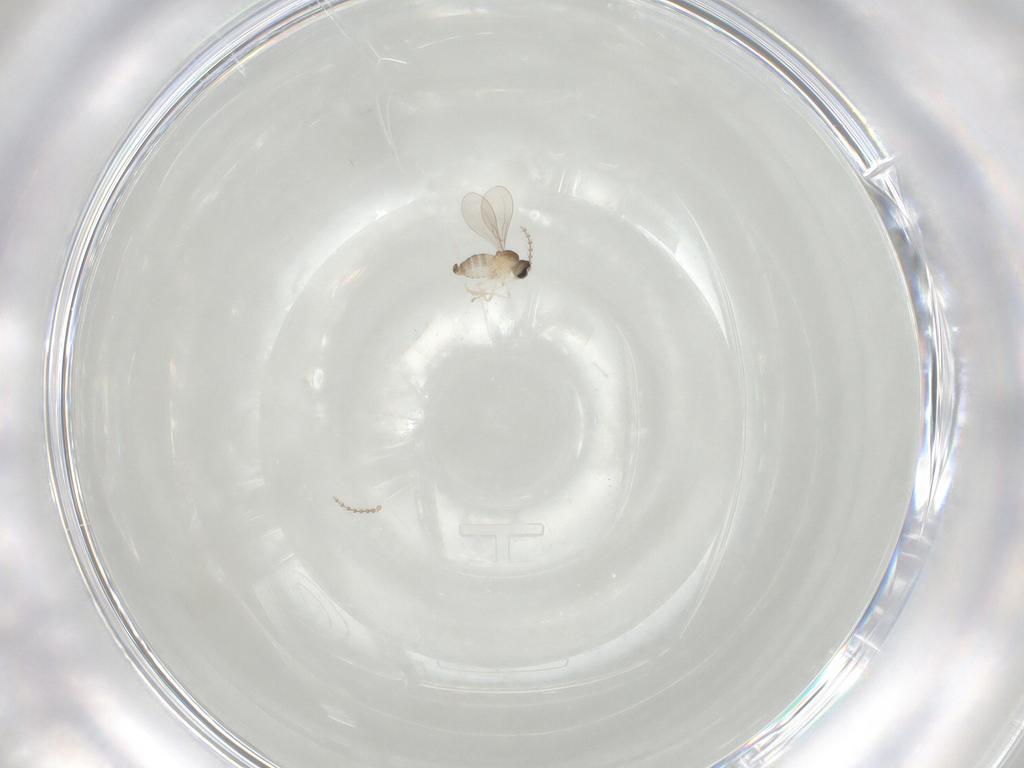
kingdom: Animalia
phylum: Arthropoda
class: Insecta
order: Diptera
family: Cecidomyiidae
